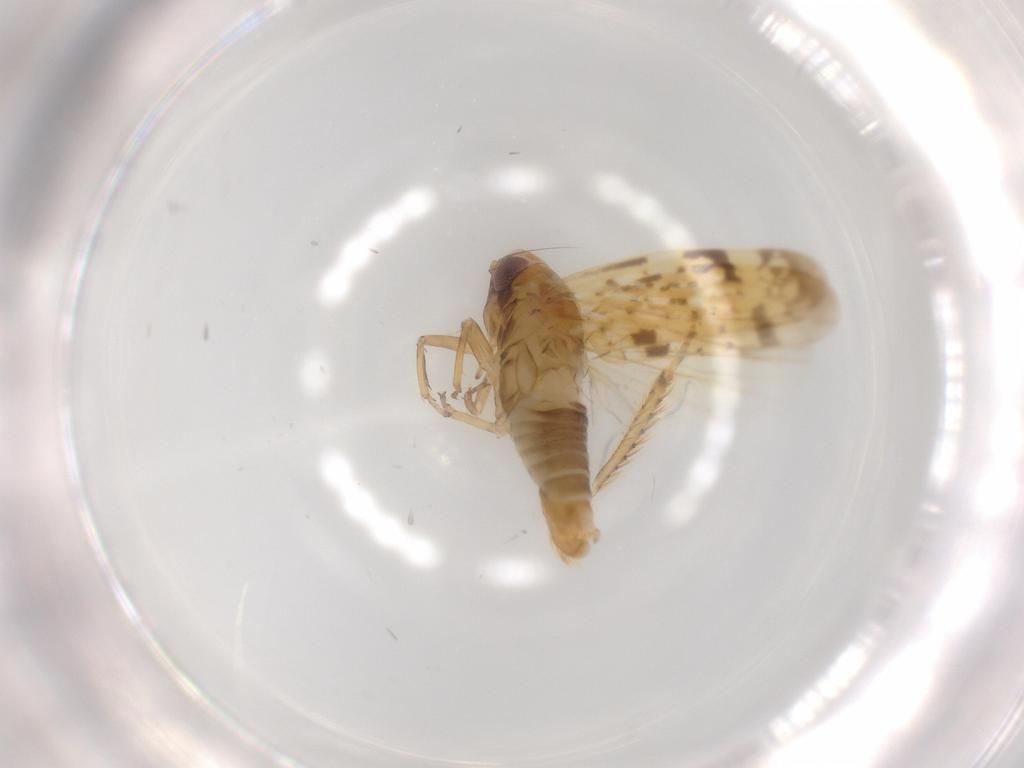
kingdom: Animalia
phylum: Arthropoda
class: Insecta
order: Hemiptera
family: Cicadellidae
